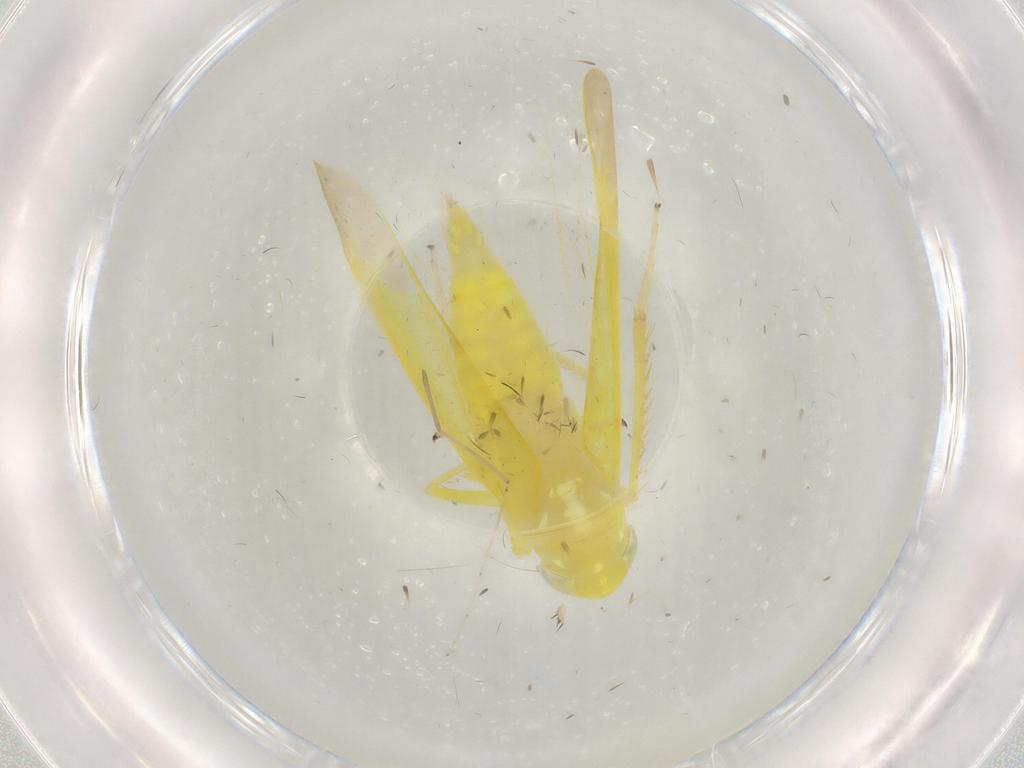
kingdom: Animalia
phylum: Arthropoda
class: Insecta
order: Hemiptera
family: Cicadellidae
